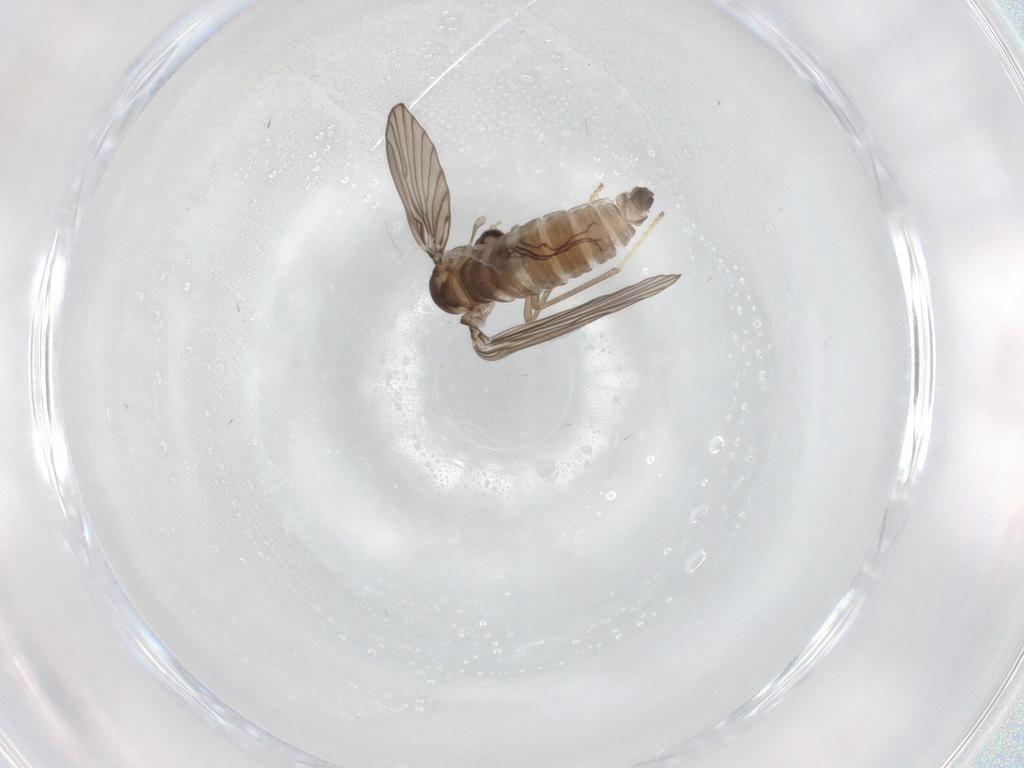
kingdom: Animalia
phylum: Arthropoda
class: Insecta
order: Diptera
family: Psychodidae
